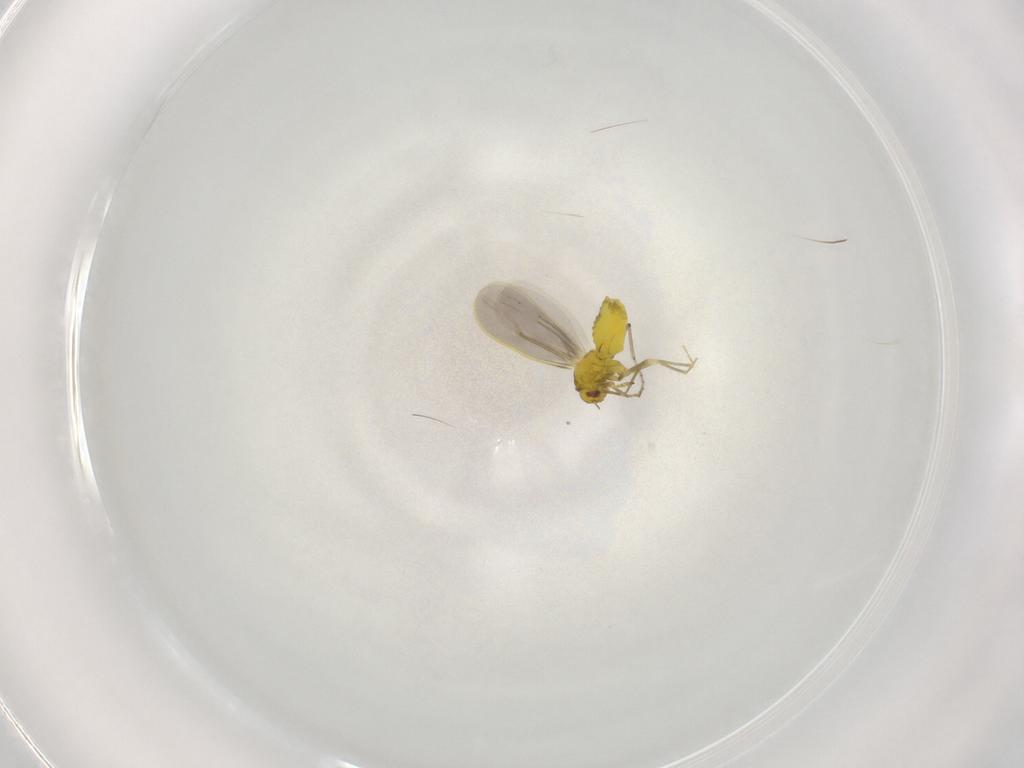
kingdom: Animalia
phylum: Arthropoda
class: Insecta
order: Hemiptera
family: Aleyrodidae
